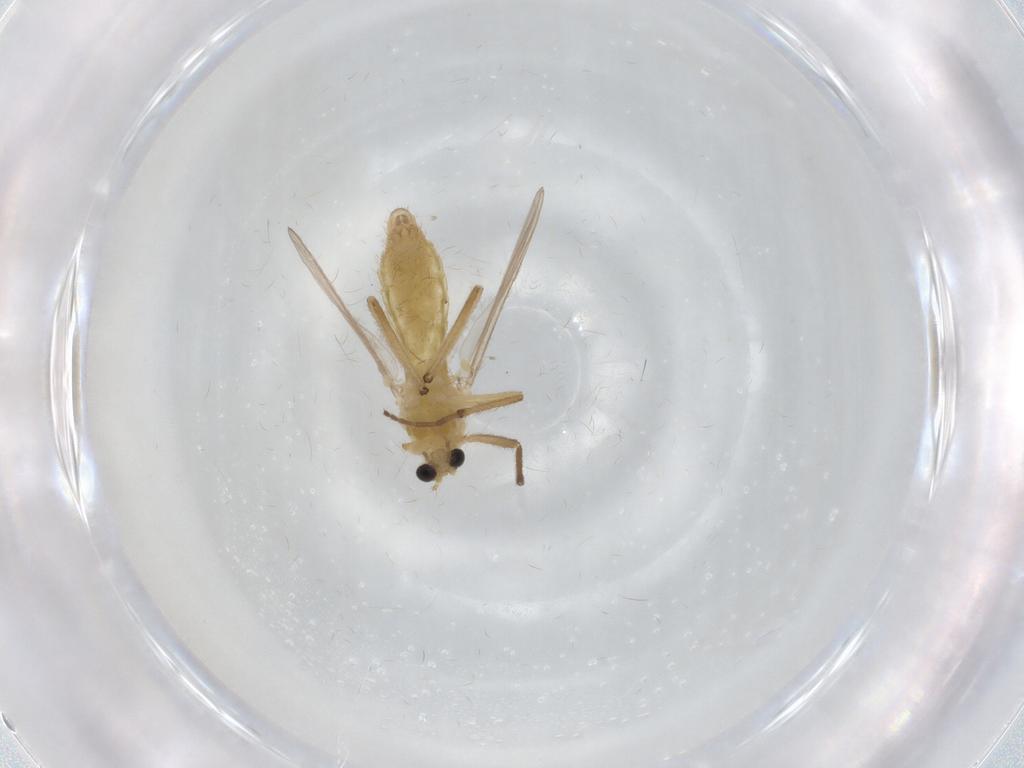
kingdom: Animalia
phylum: Arthropoda
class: Insecta
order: Diptera
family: Chironomidae
